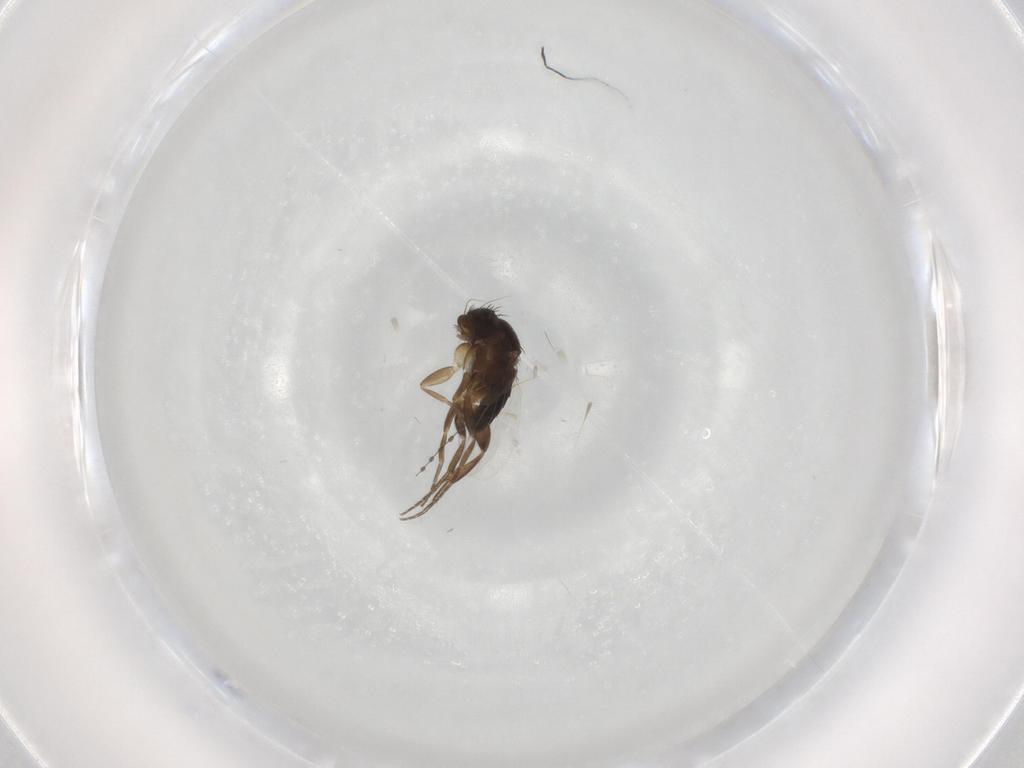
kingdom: Animalia
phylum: Arthropoda
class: Insecta
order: Diptera
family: Phoridae
